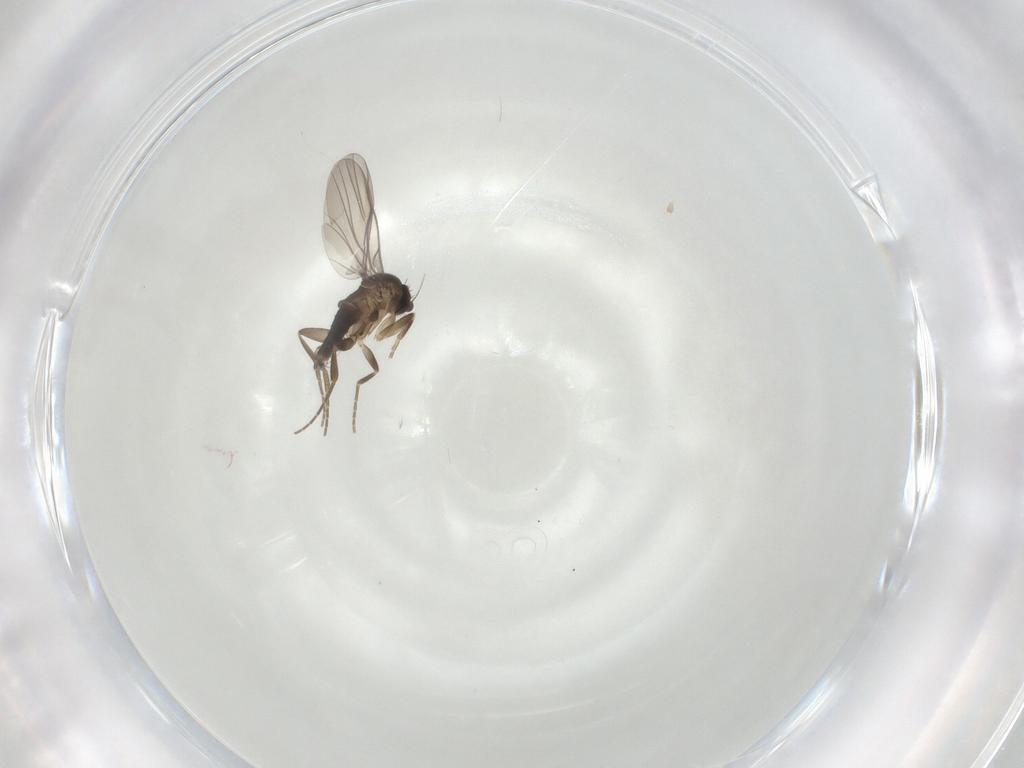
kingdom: Animalia
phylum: Arthropoda
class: Insecta
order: Diptera
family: Phoridae
